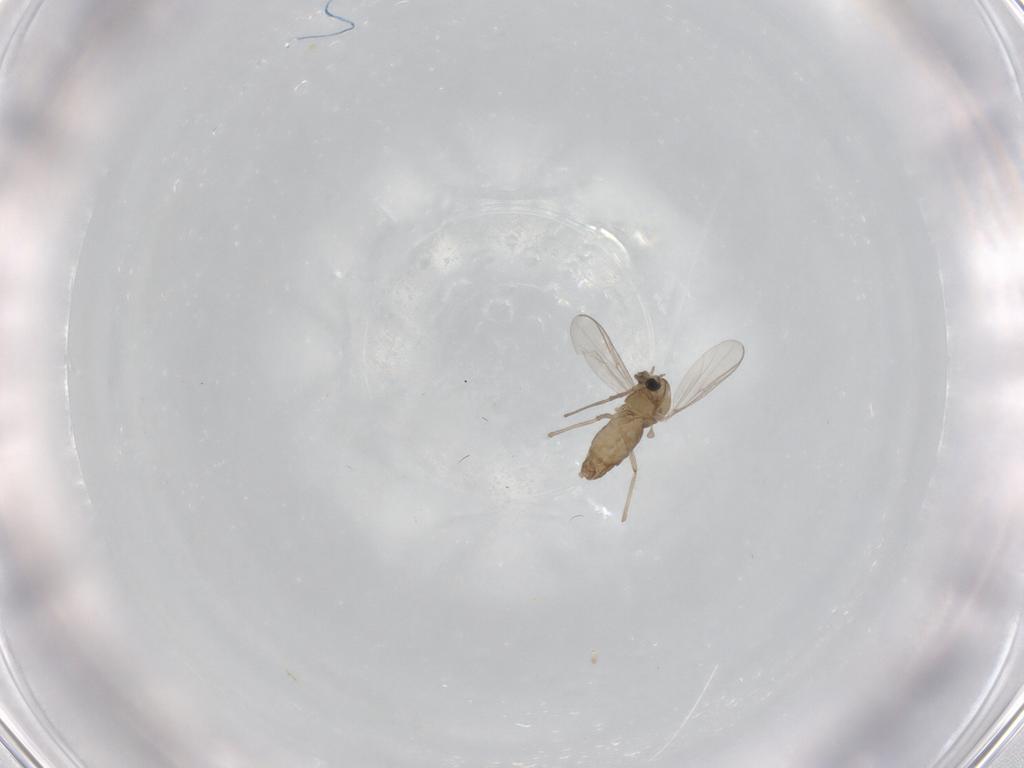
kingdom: Animalia
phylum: Arthropoda
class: Insecta
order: Diptera
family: Chironomidae
